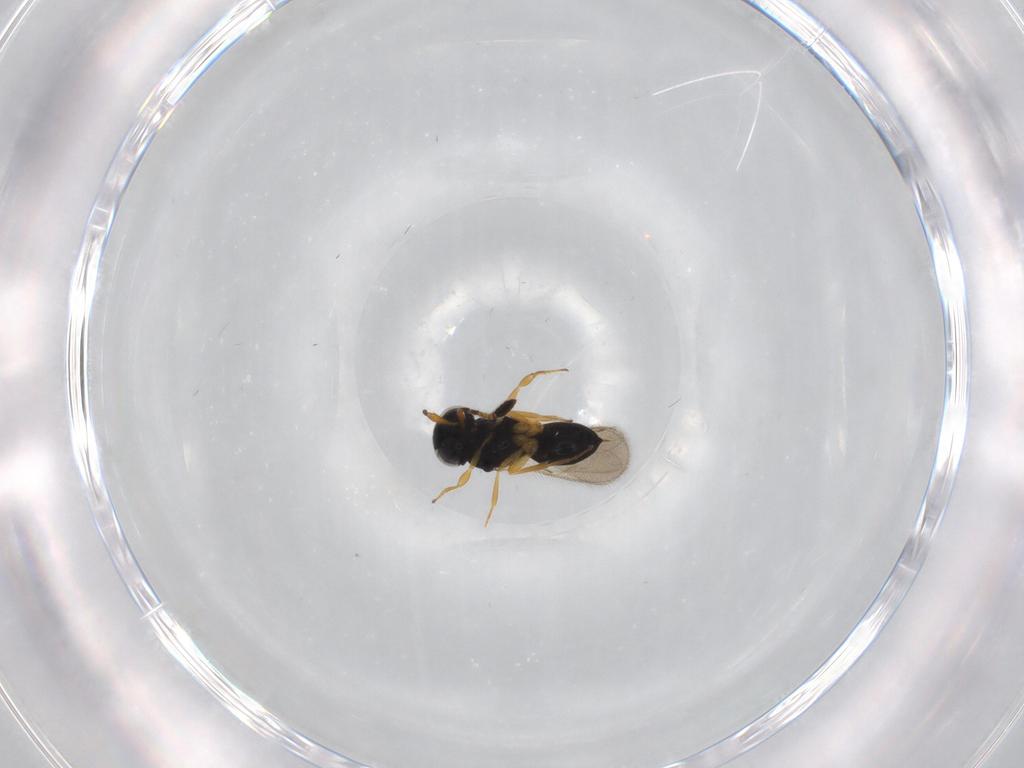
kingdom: Animalia
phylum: Arthropoda
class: Insecta
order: Hymenoptera
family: Scelionidae
